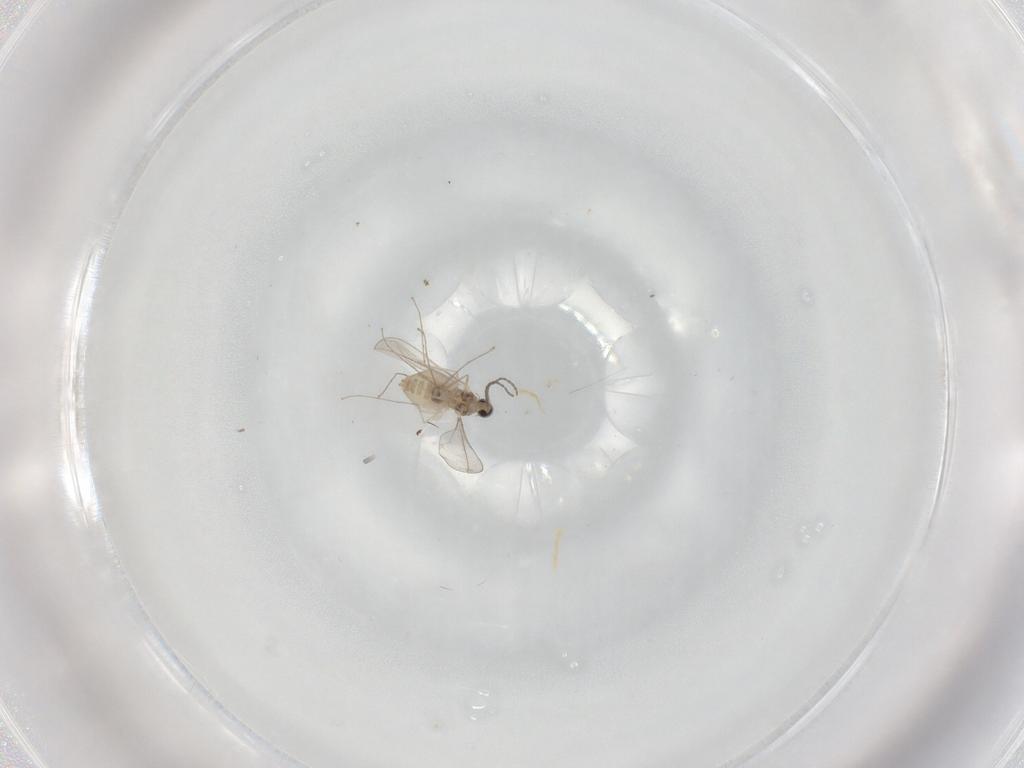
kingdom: Animalia
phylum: Arthropoda
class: Insecta
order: Diptera
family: Cecidomyiidae
